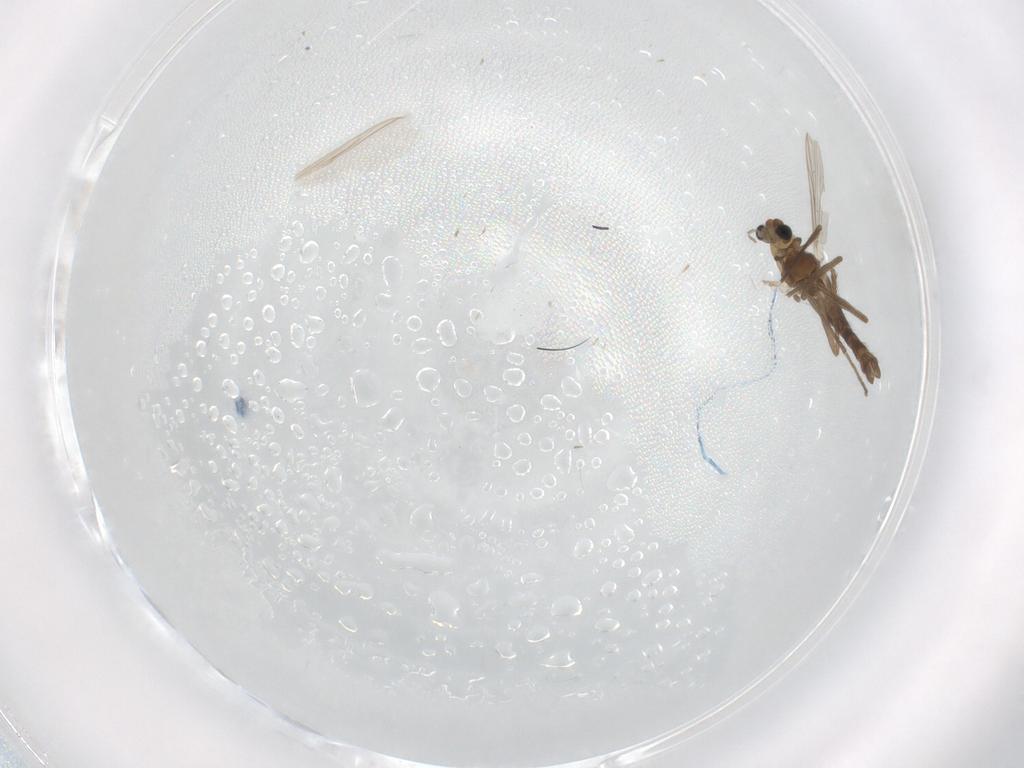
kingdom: Animalia
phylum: Arthropoda
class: Insecta
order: Diptera
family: Chironomidae
